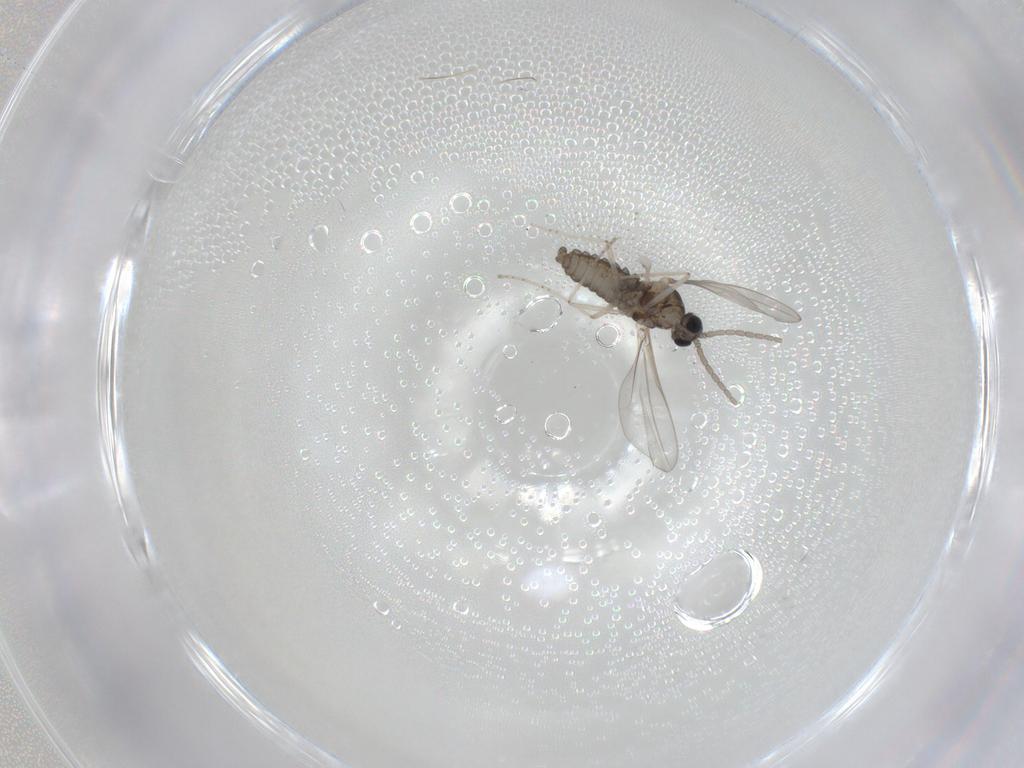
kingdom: Animalia
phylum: Arthropoda
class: Insecta
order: Diptera
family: Cecidomyiidae
